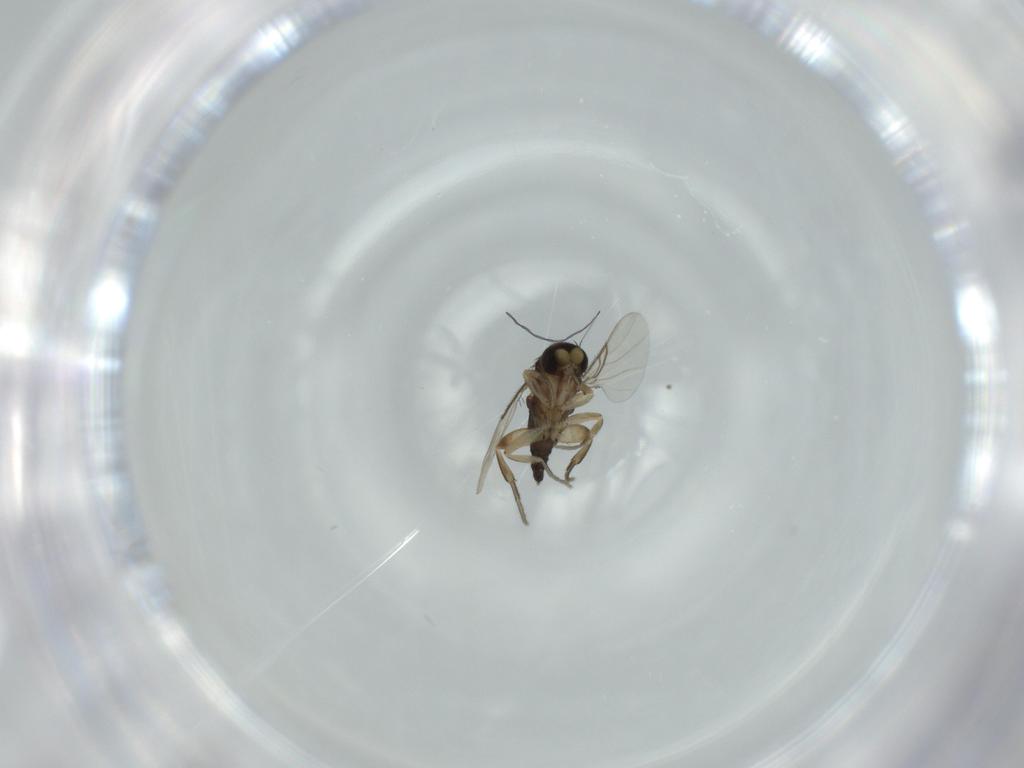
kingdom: Animalia
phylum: Arthropoda
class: Insecta
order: Diptera
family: Phoridae
